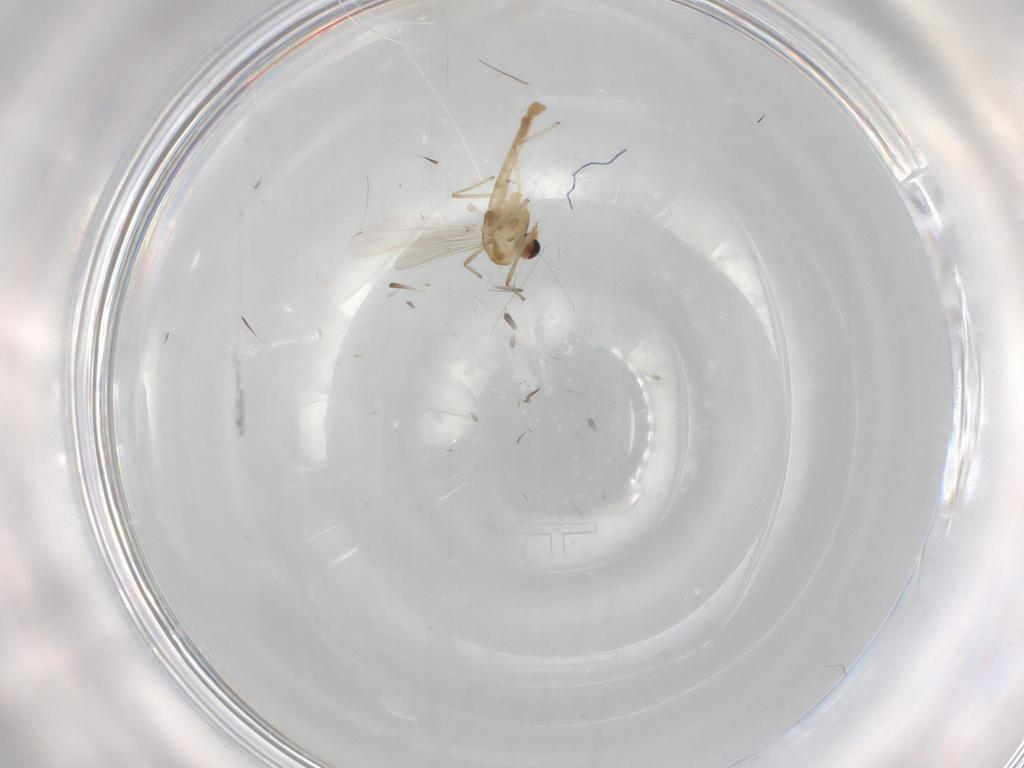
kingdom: Animalia
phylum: Arthropoda
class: Insecta
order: Diptera
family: Chironomidae
